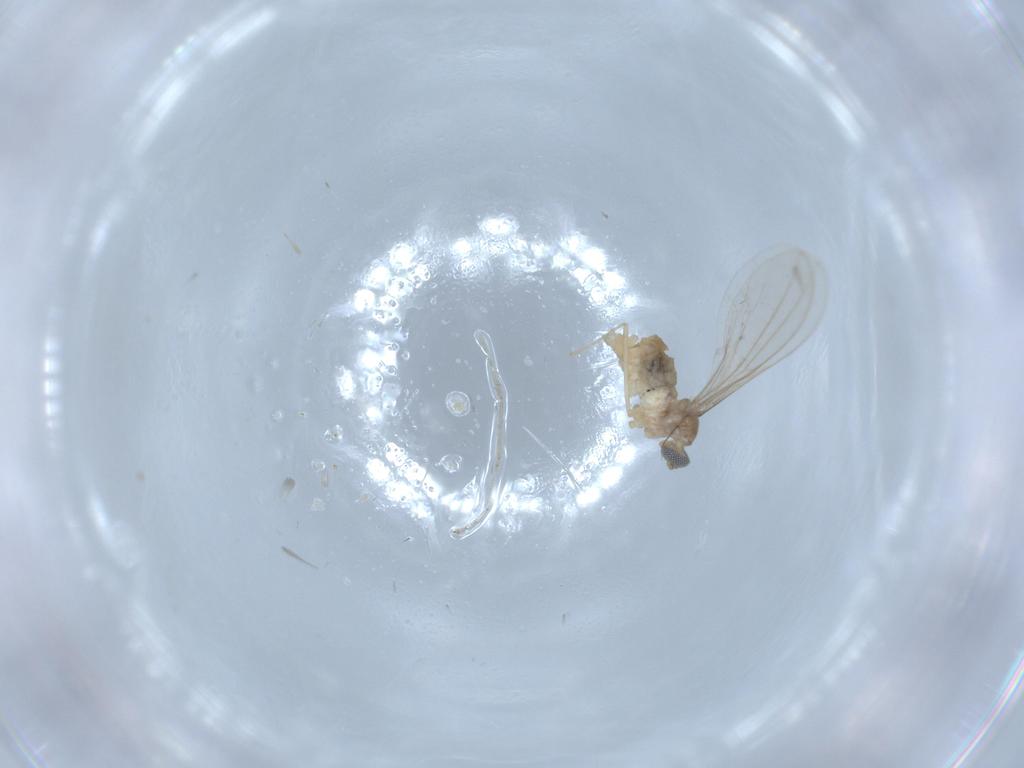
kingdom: Animalia
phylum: Arthropoda
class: Insecta
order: Diptera
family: Cecidomyiidae
